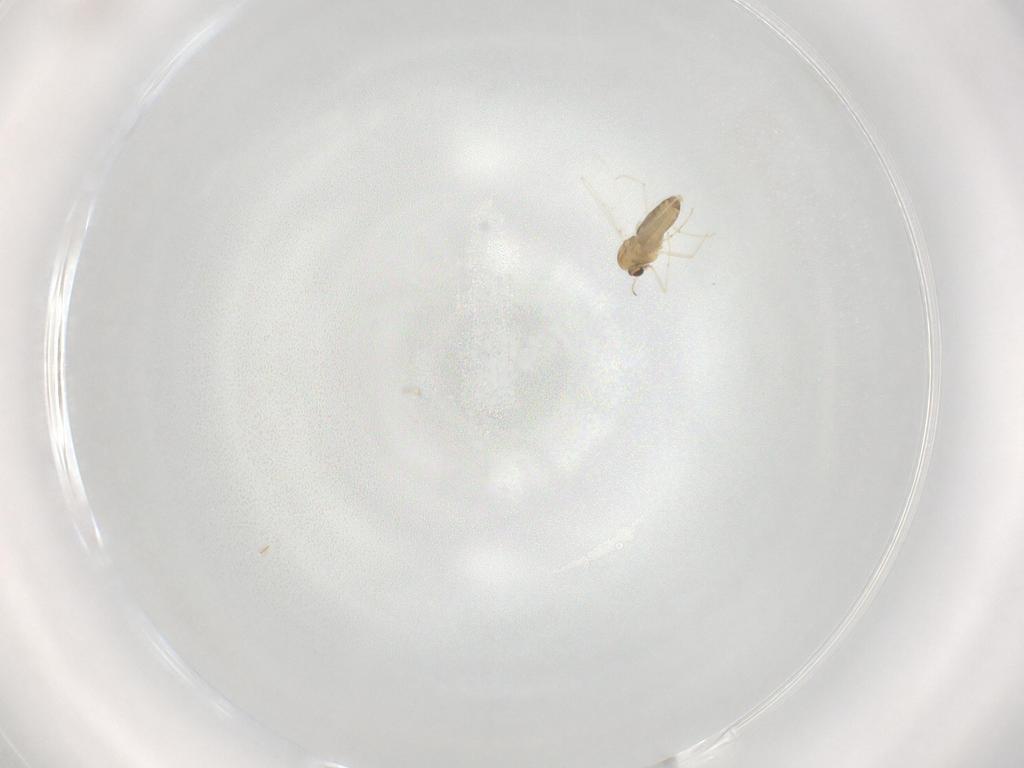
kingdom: Animalia
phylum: Arthropoda
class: Insecta
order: Diptera
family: Chironomidae
